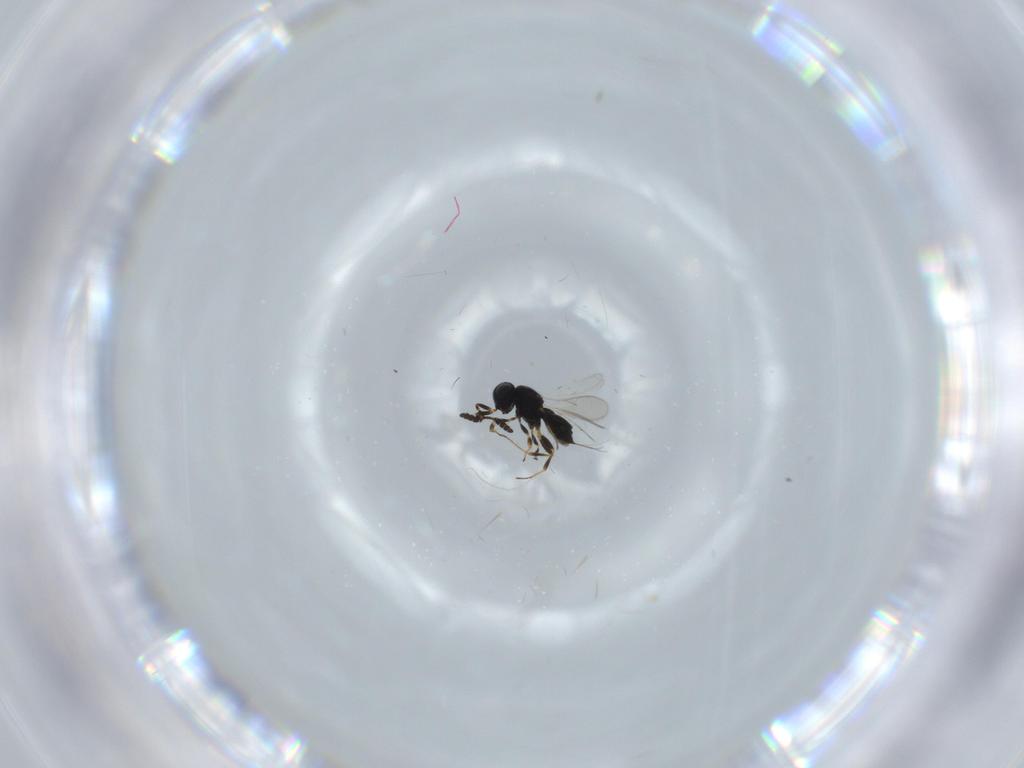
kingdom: Animalia
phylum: Arthropoda
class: Insecta
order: Hymenoptera
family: Scelionidae
